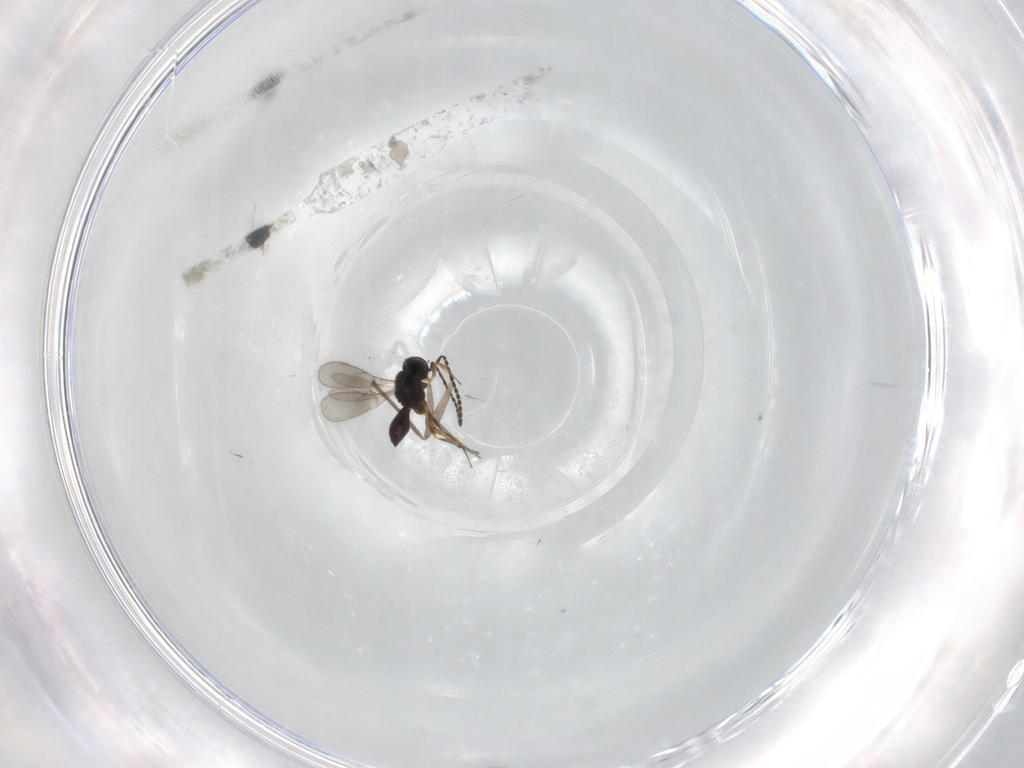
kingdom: Animalia
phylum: Arthropoda
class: Insecta
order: Hymenoptera
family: Scelionidae
